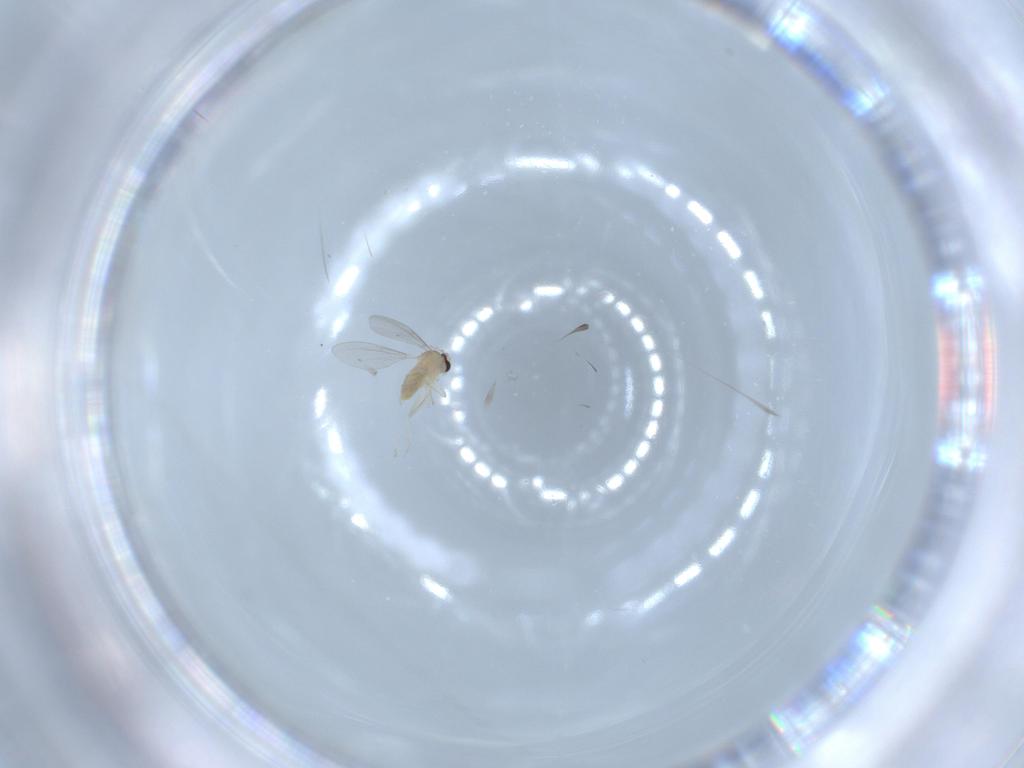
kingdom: Animalia
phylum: Arthropoda
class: Insecta
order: Diptera
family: Cecidomyiidae
